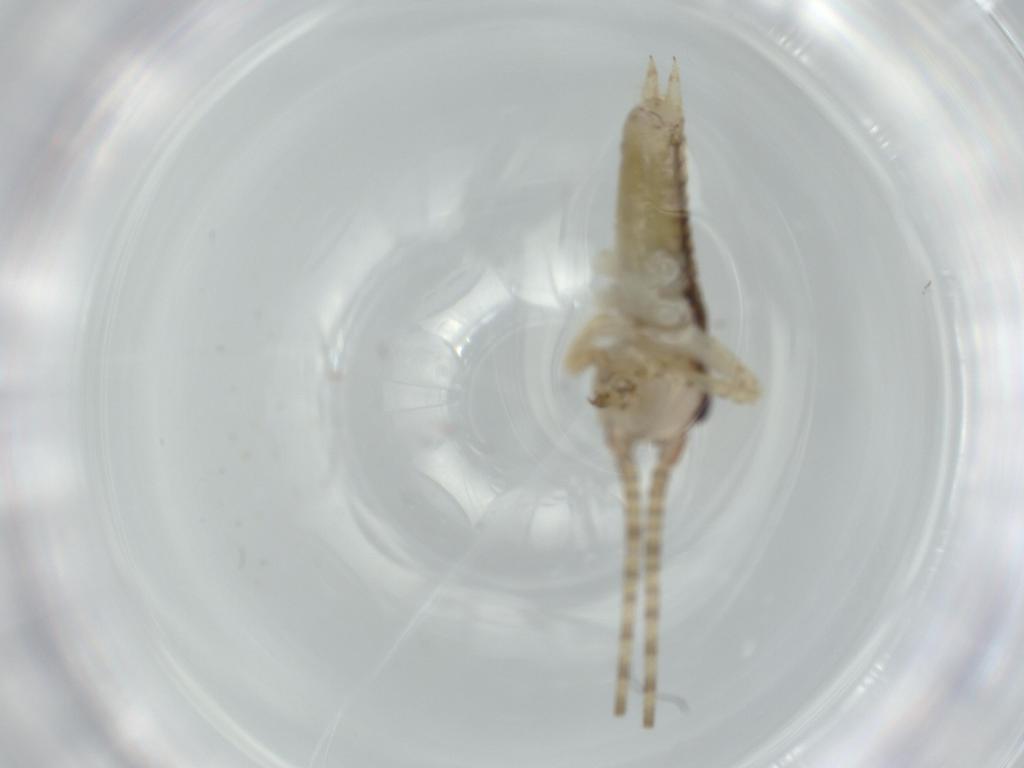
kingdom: Animalia
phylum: Arthropoda
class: Insecta
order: Orthoptera
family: Gryllidae
